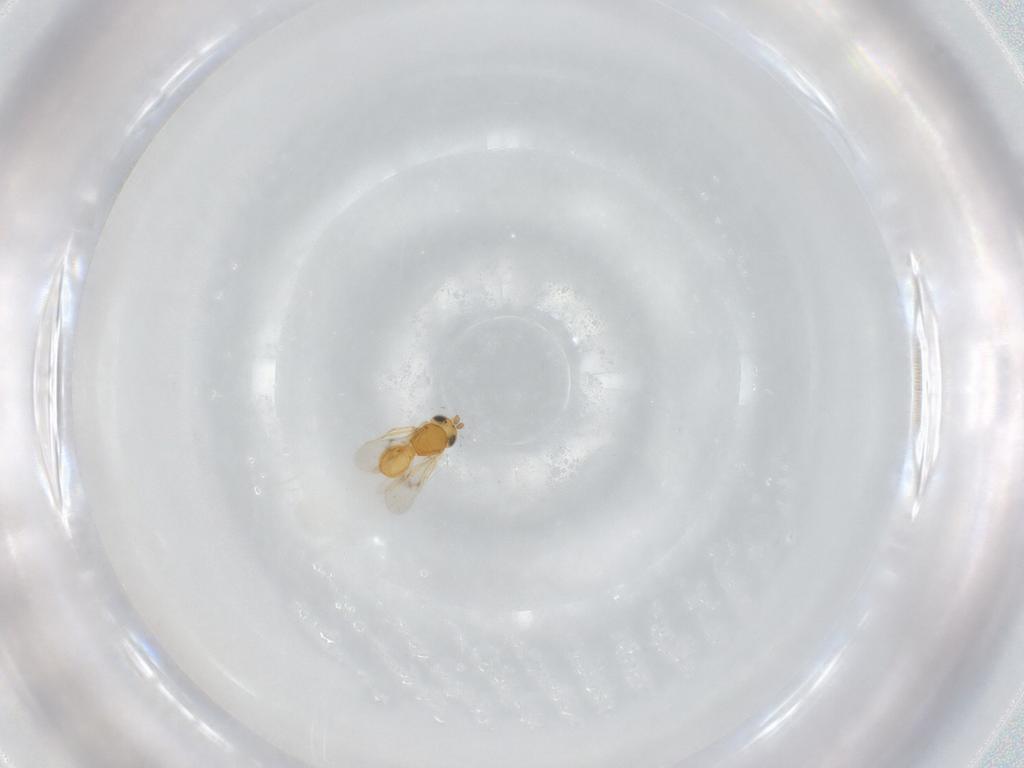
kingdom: Animalia
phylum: Arthropoda
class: Insecta
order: Hymenoptera
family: Scelionidae
